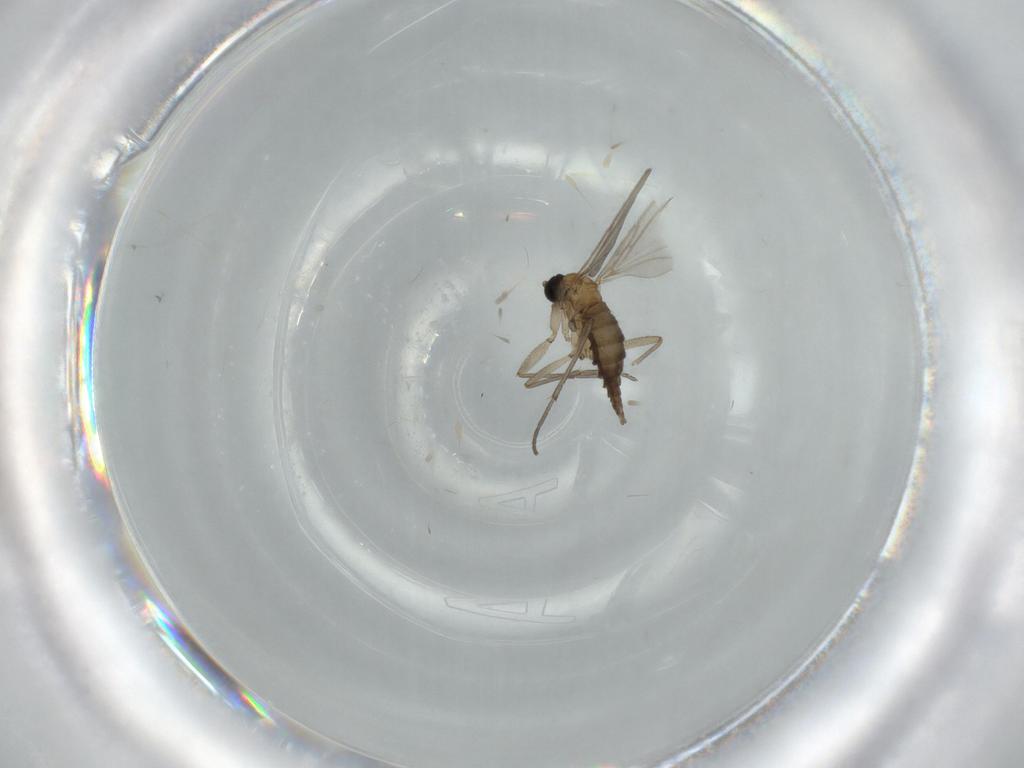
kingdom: Animalia
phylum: Arthropoda
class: Insecta
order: Diptera
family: Sciaridae
